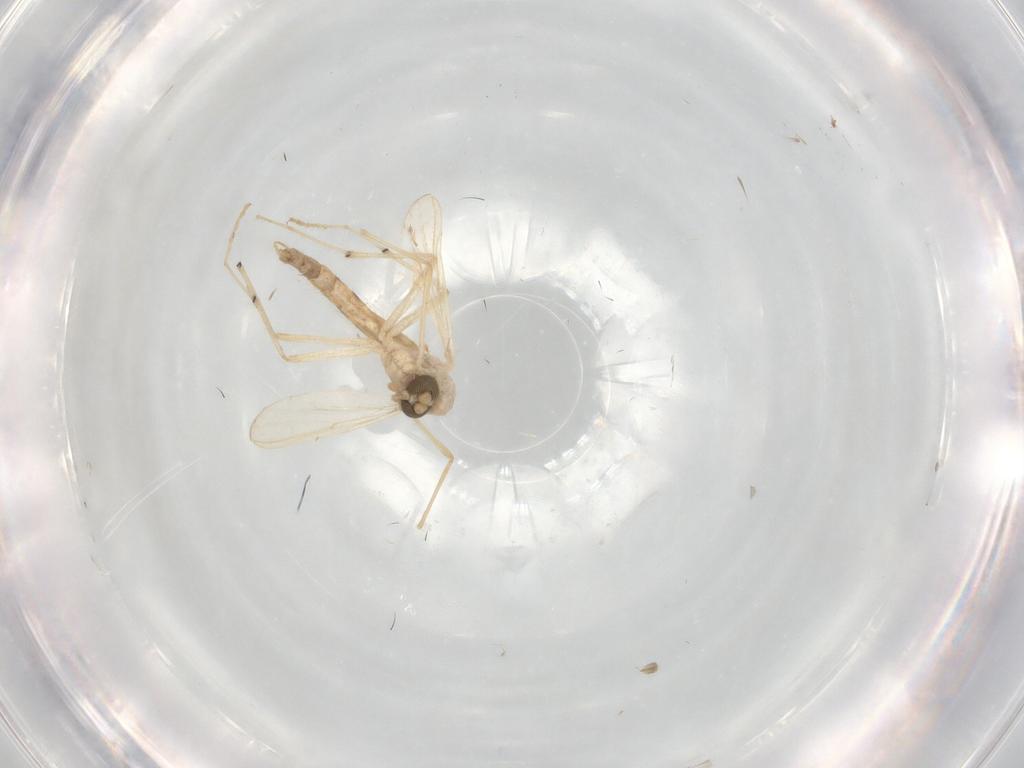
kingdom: Animalia
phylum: Arthropoda
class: Insecta
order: Diptera
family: Chironomidae
